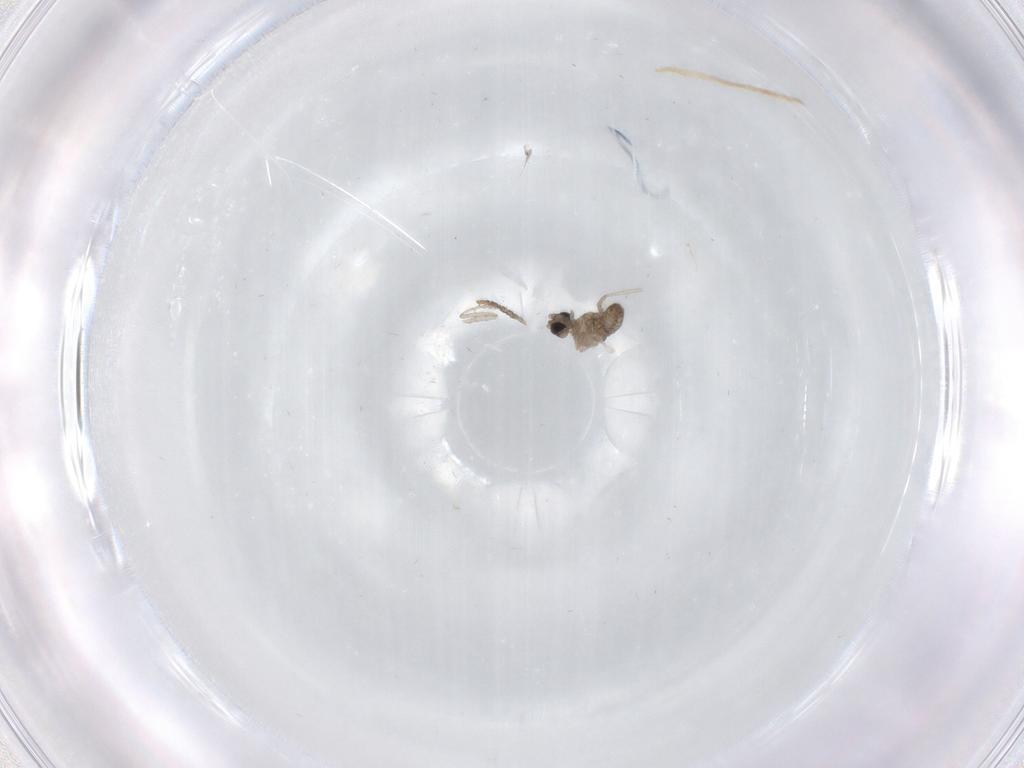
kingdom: Animalia
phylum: Arthropoda
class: Insecta
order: Diptera
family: Cecidomyiidae
